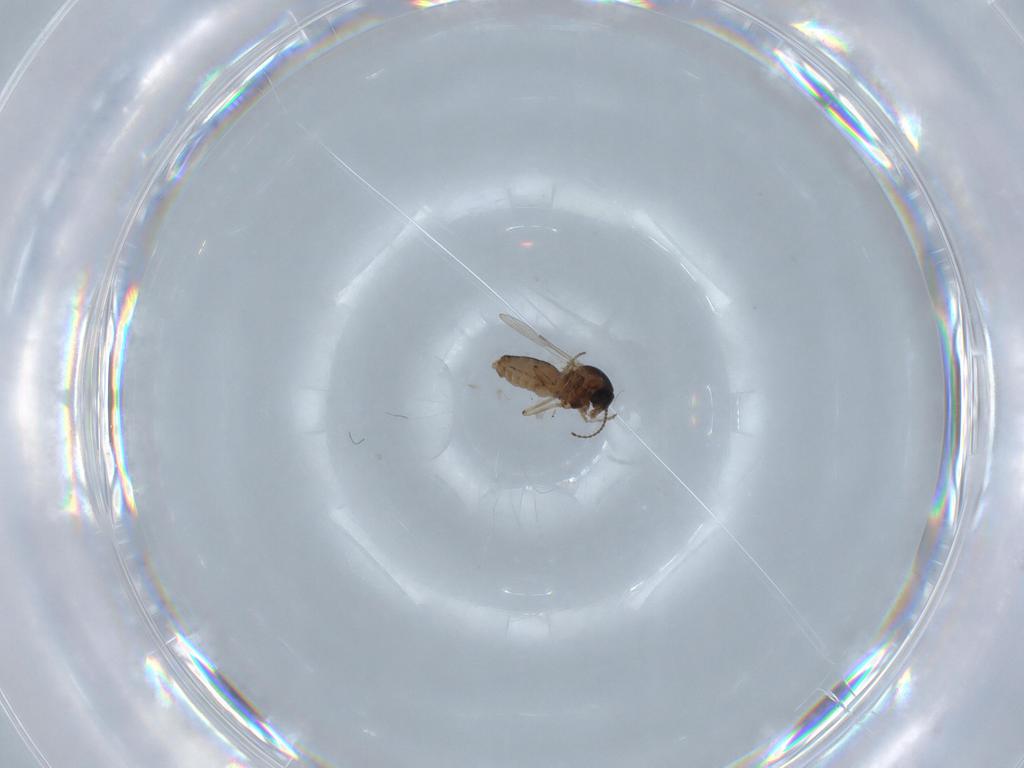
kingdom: Animalia
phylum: Arthropoda
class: Insecta
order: Diptera
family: Ceratopogonidae
